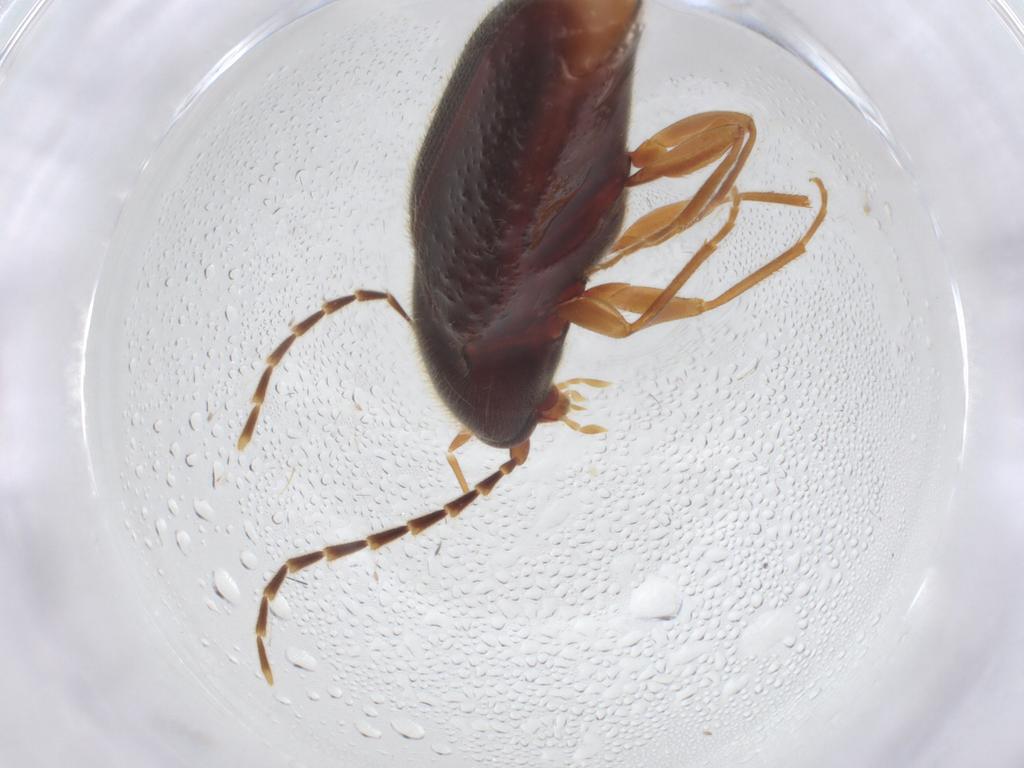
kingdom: Animalia
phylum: Arthropoda
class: Insecta
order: Coleoptera
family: Elateridae
